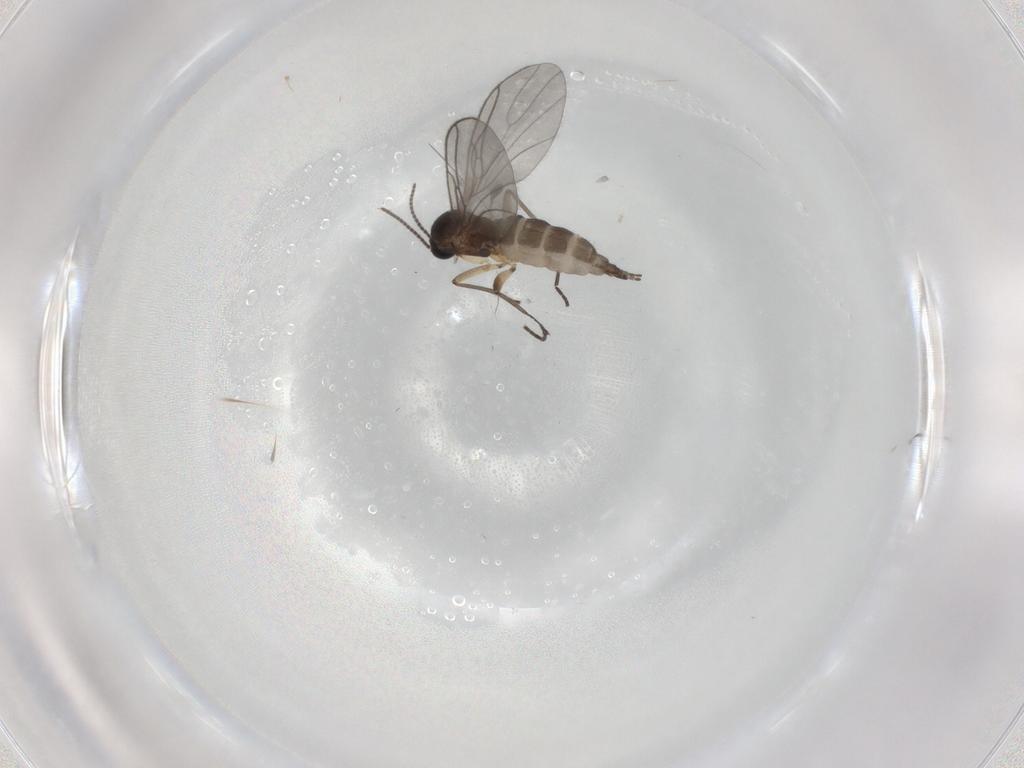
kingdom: Animalia
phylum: Arthropoda
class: Insecta
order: Diptera
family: Sciaridae
